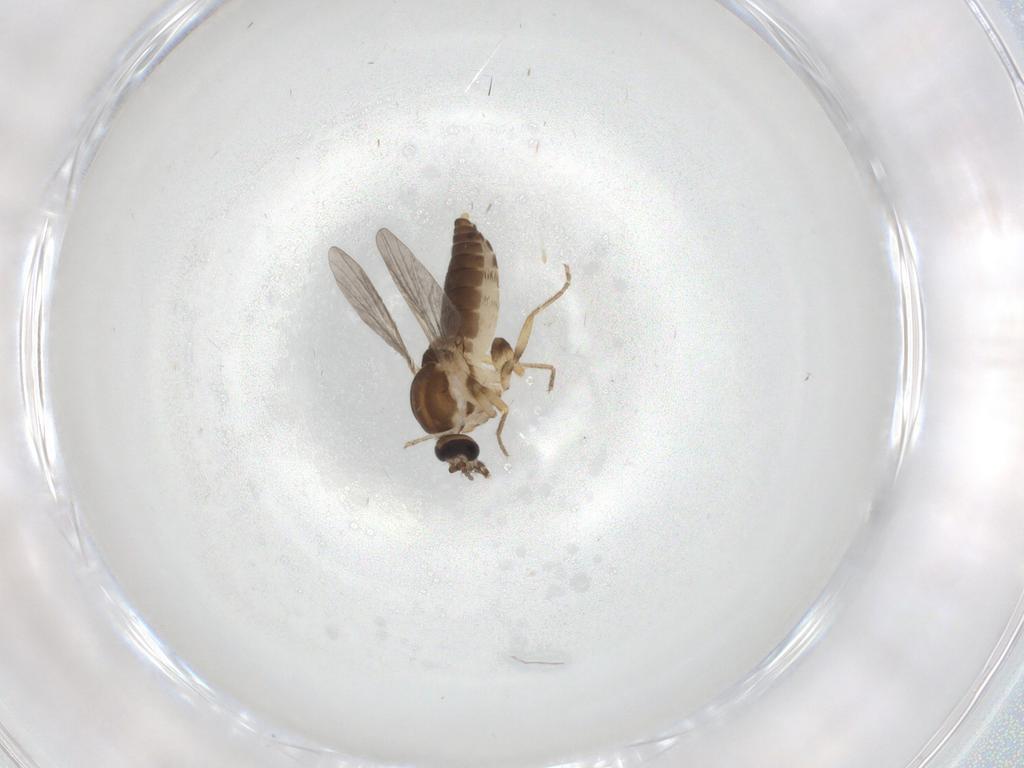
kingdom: Animalia
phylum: Arthropoda
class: Insecta
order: Diptera
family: Ceratopogonidae
